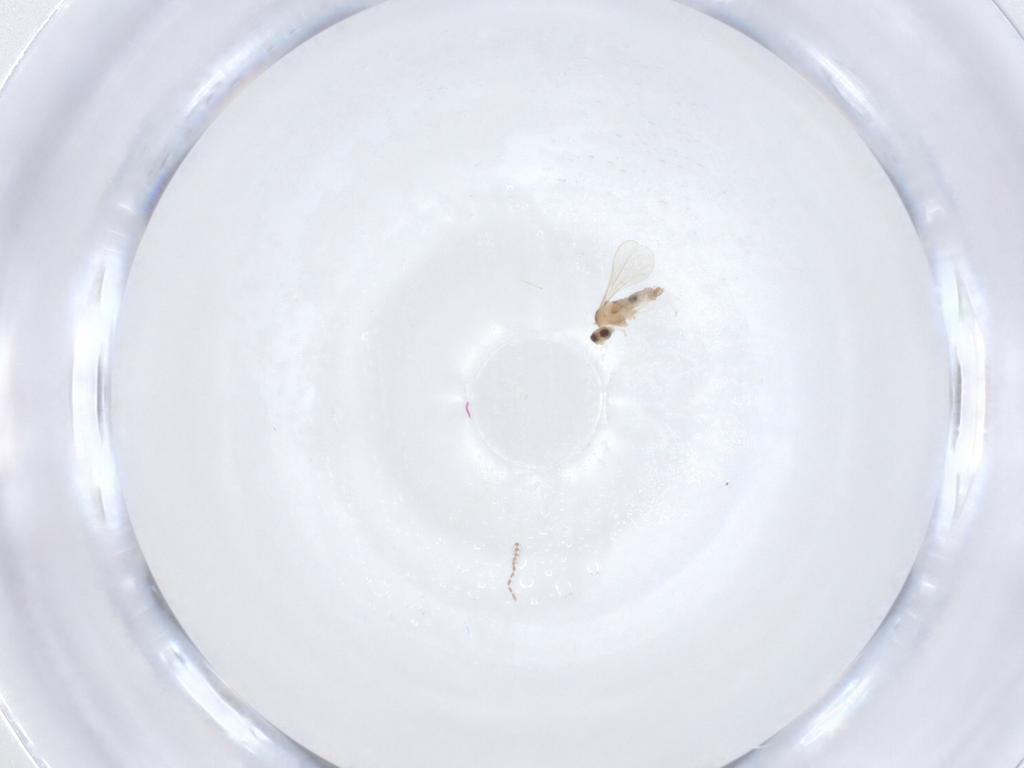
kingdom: Animalia
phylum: Arthropoda
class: Insecta
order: Diptera
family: Cecidomyiidae
